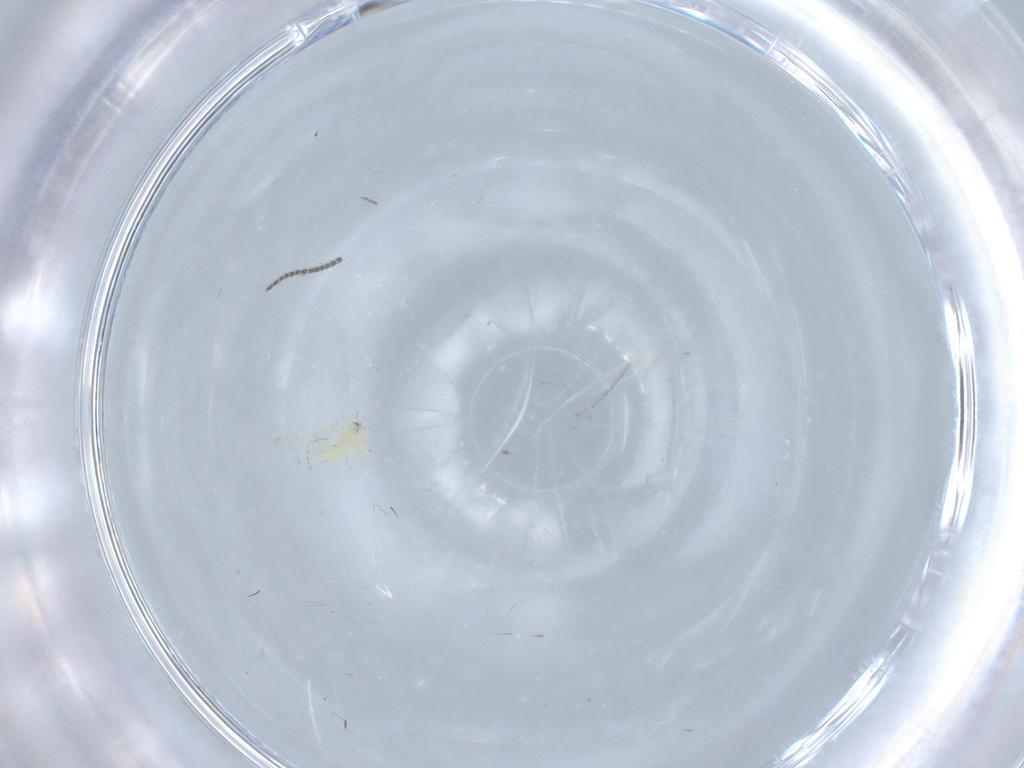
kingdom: Animalia
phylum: Arthropoda
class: Insecta
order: Hemiptera
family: Aleyrodidae
